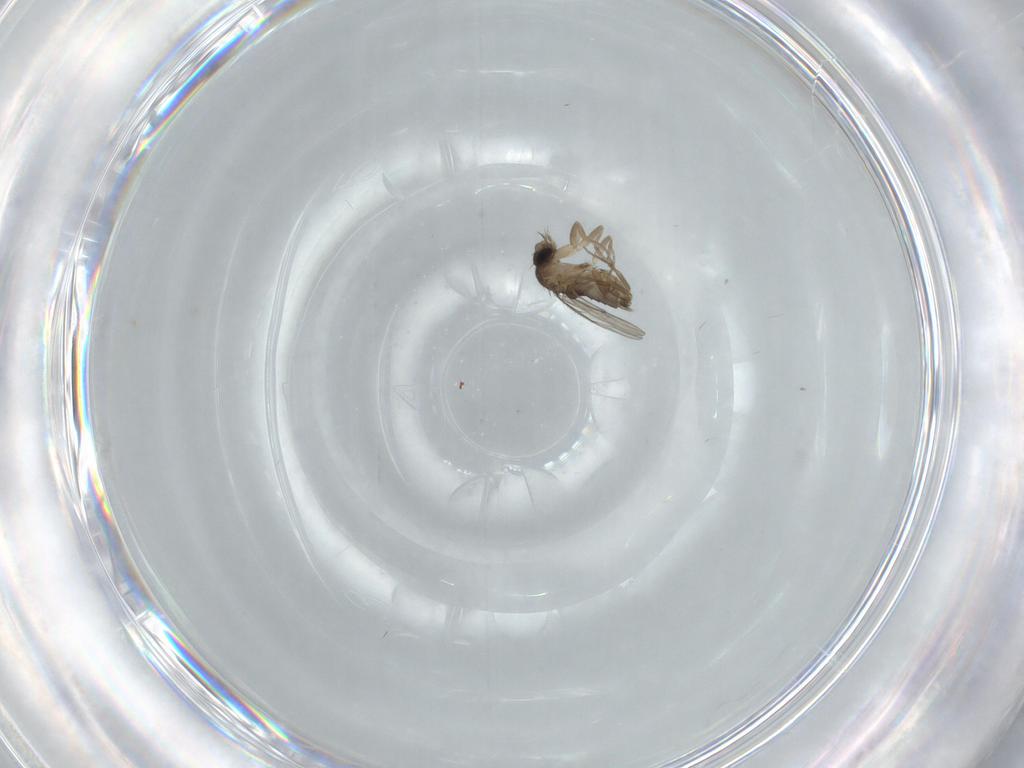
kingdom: Animalia
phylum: Arthropoda
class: Insecta
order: Diptera
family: Phoridae
